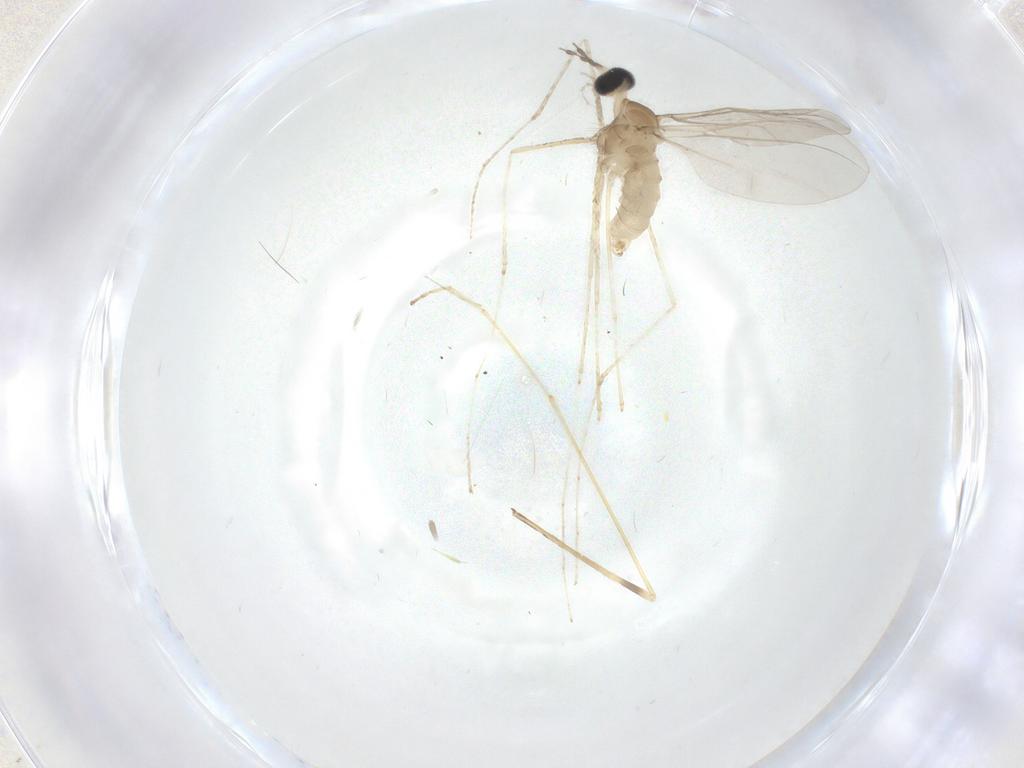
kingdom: Animalia
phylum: Arthropoda
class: Insecta
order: Diptera
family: Cecidomyiidae
